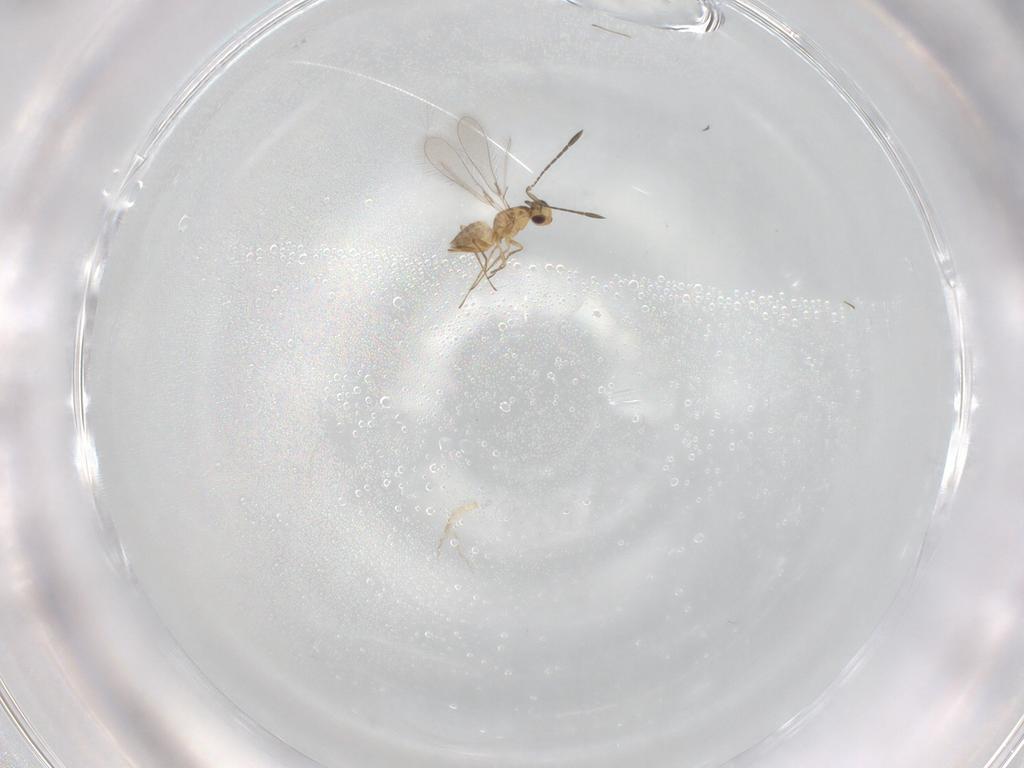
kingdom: Animalia
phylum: Arthropoda
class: Insecta
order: Hymenoptera
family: Mymaridae
